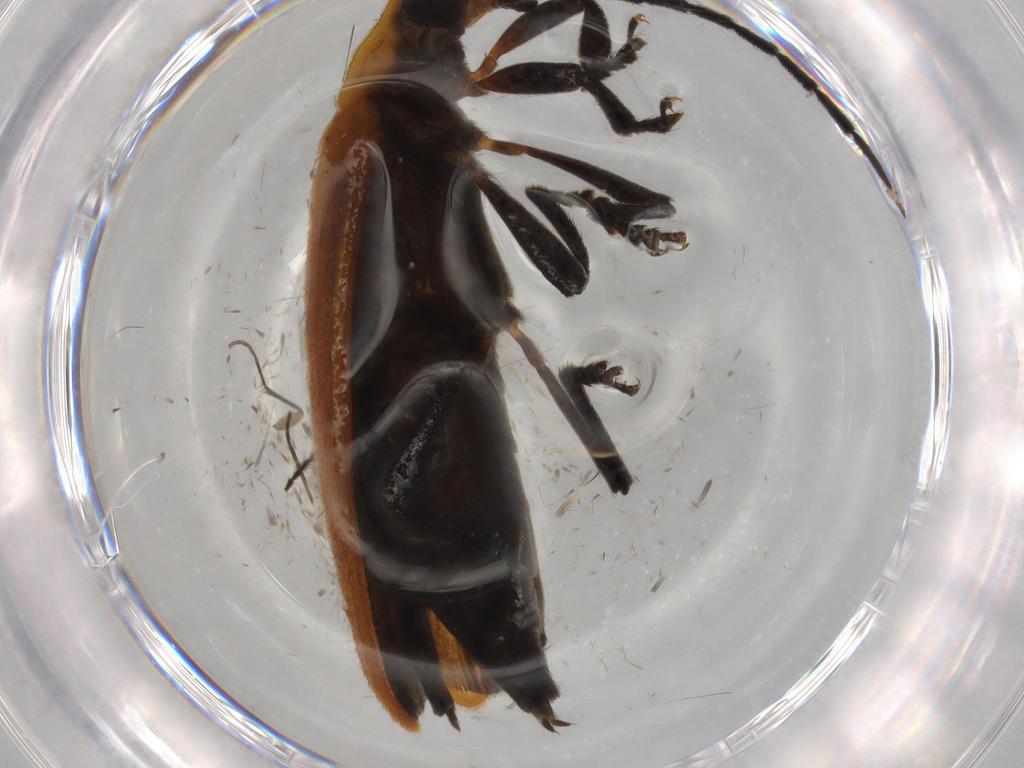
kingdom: Animalia
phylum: Arthropoda
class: Insecta
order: Coleoptera
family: Lycidae
